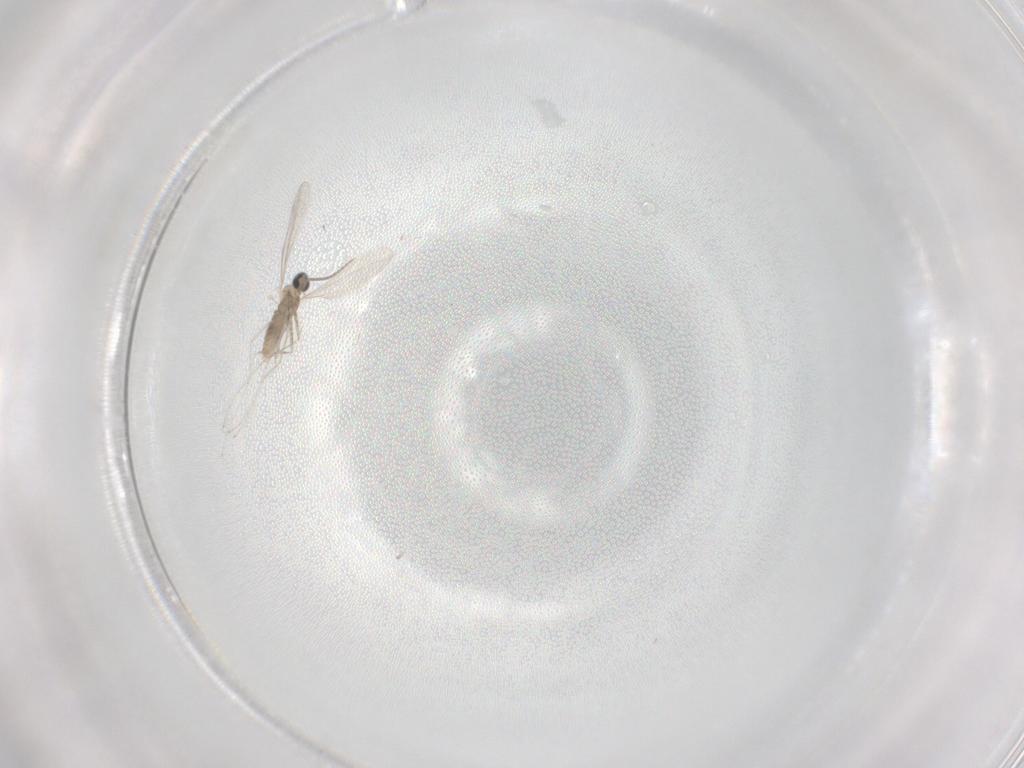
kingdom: Animalia
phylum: Arthropoda
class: Insecta
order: Diptera
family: Cecidomyiidae
